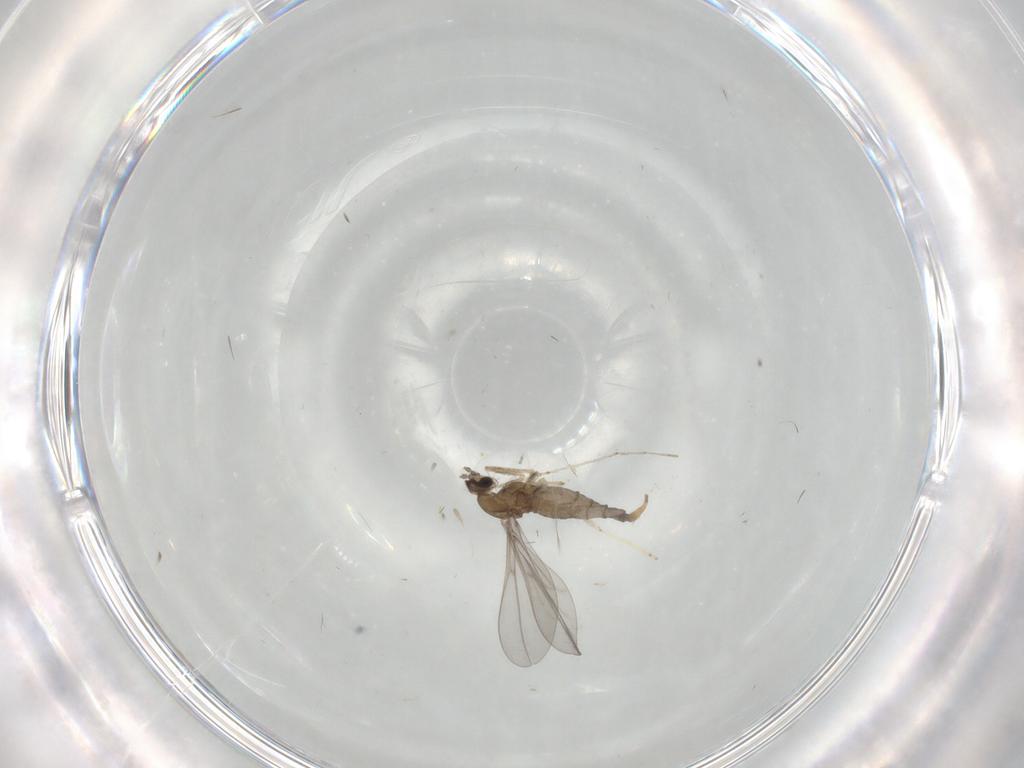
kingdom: Animalia
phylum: Arthropoda
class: Insecta
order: Diptera
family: Cecidomyiidae
